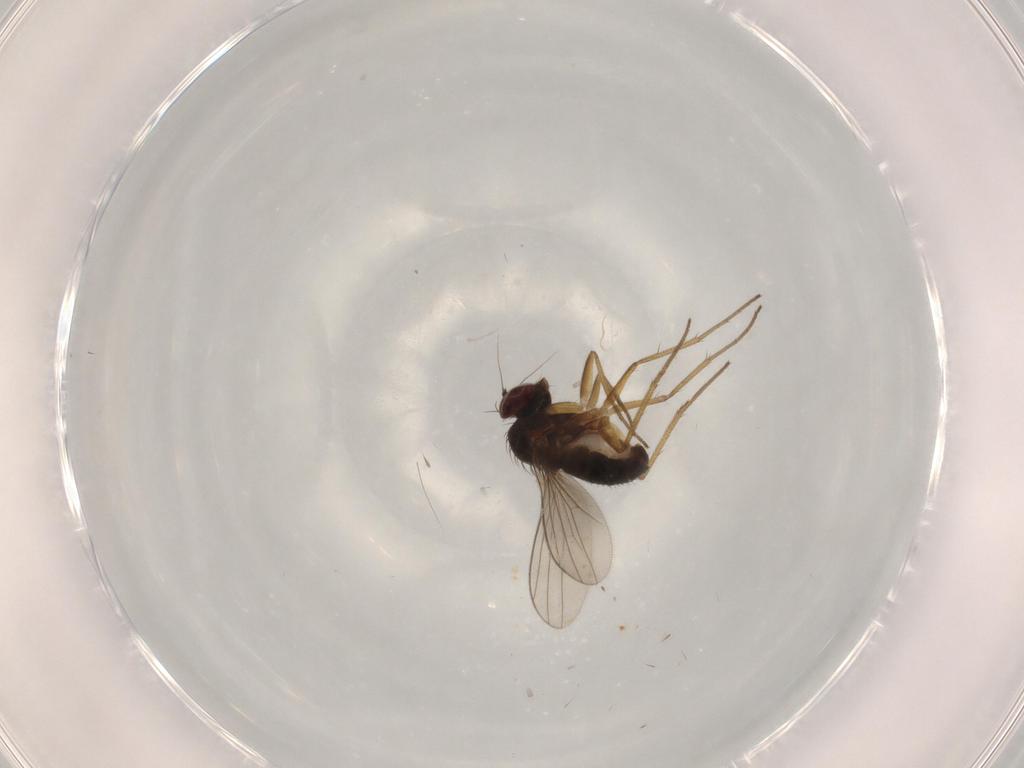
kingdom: Animalia
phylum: Arthropoda
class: Insecta
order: Diptera
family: Dolichopodidae
